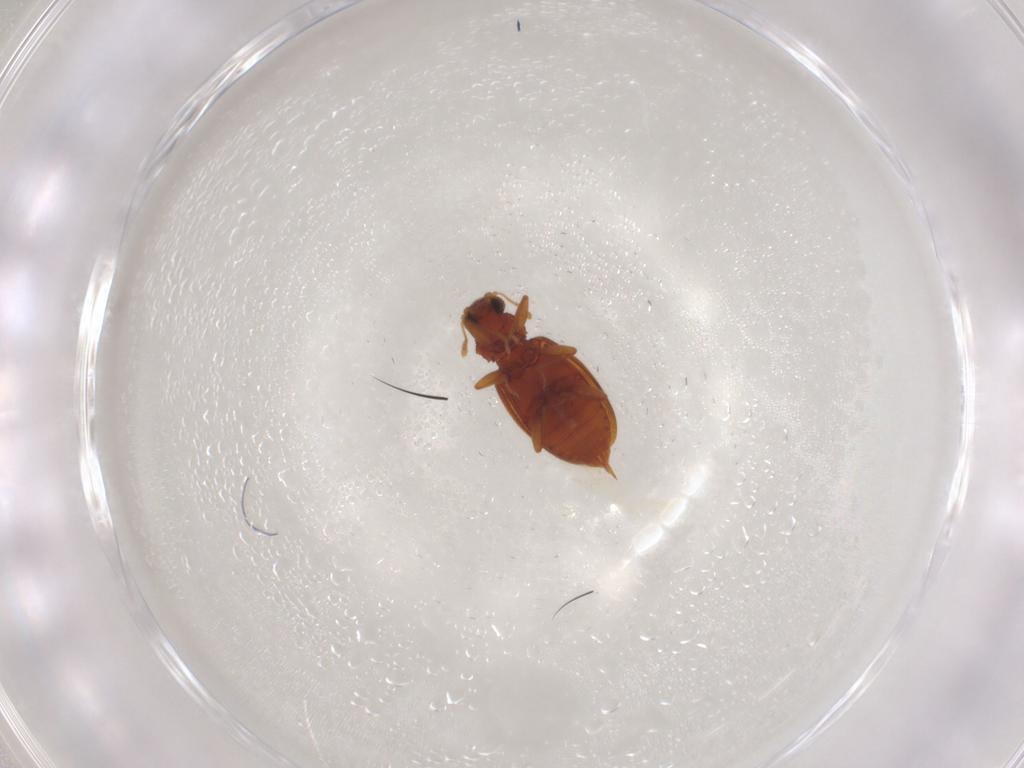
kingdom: Animalia
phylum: Arthropoda
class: Insecta
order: Coleoptera
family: Latridiidae
